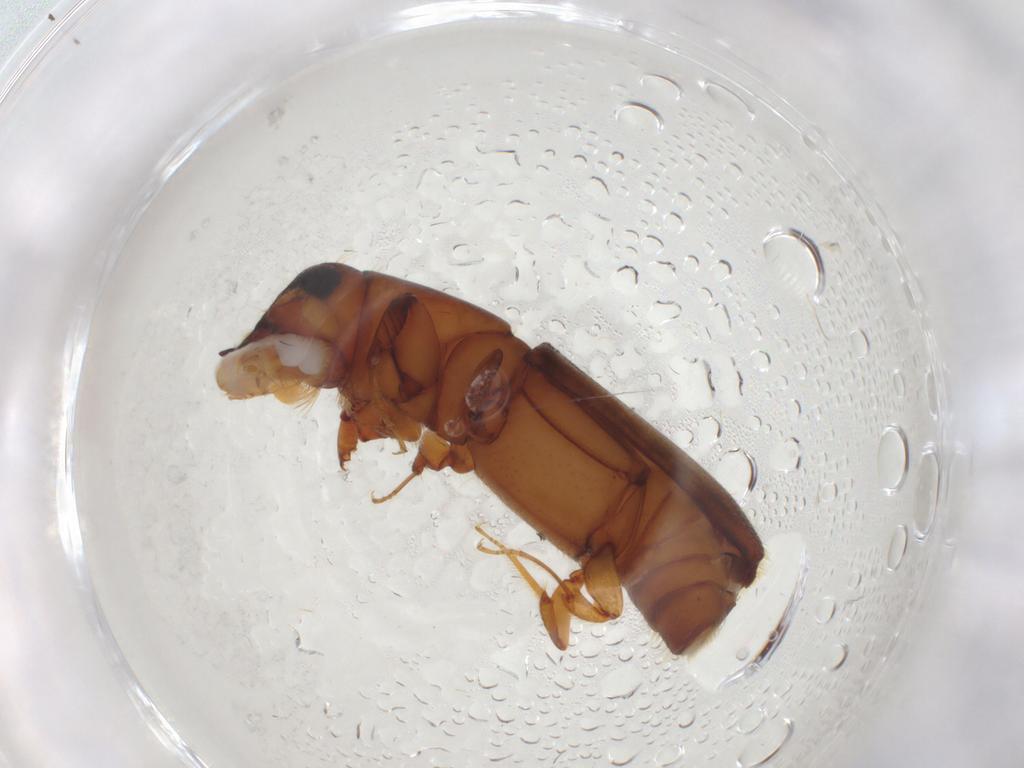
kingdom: Animalia
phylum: Arthropoda
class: Insecta
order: Coleoptera
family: Curculionidae
